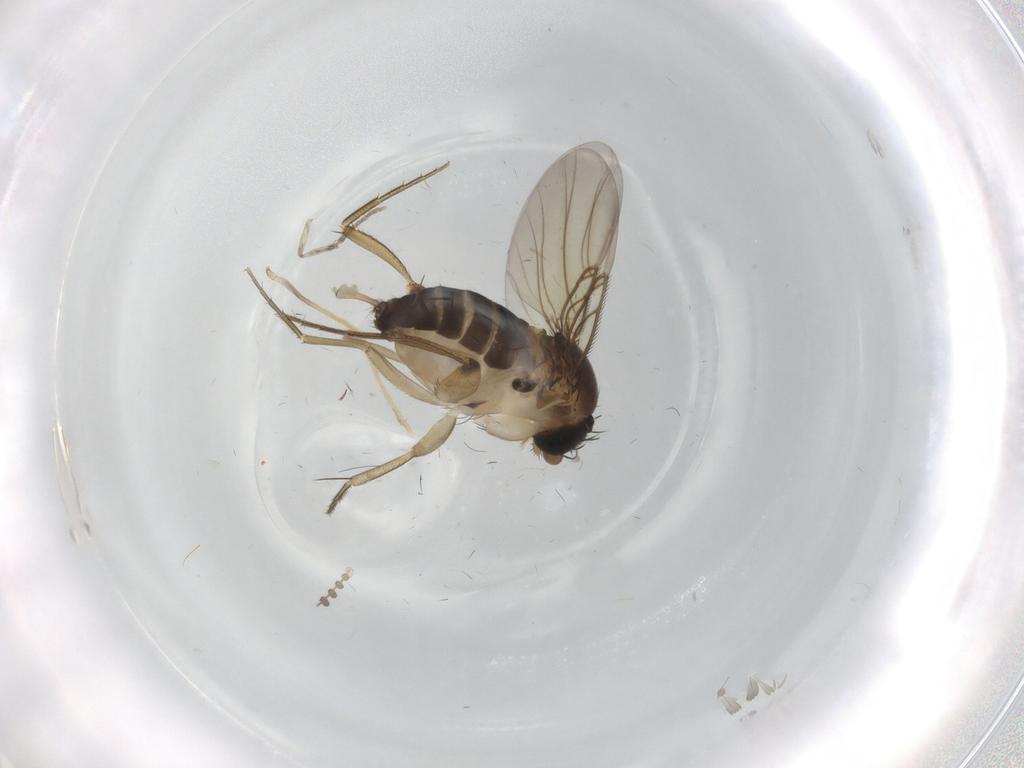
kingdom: Animalia
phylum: Arthropoda
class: Insecta
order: Diptera
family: Phoridae
